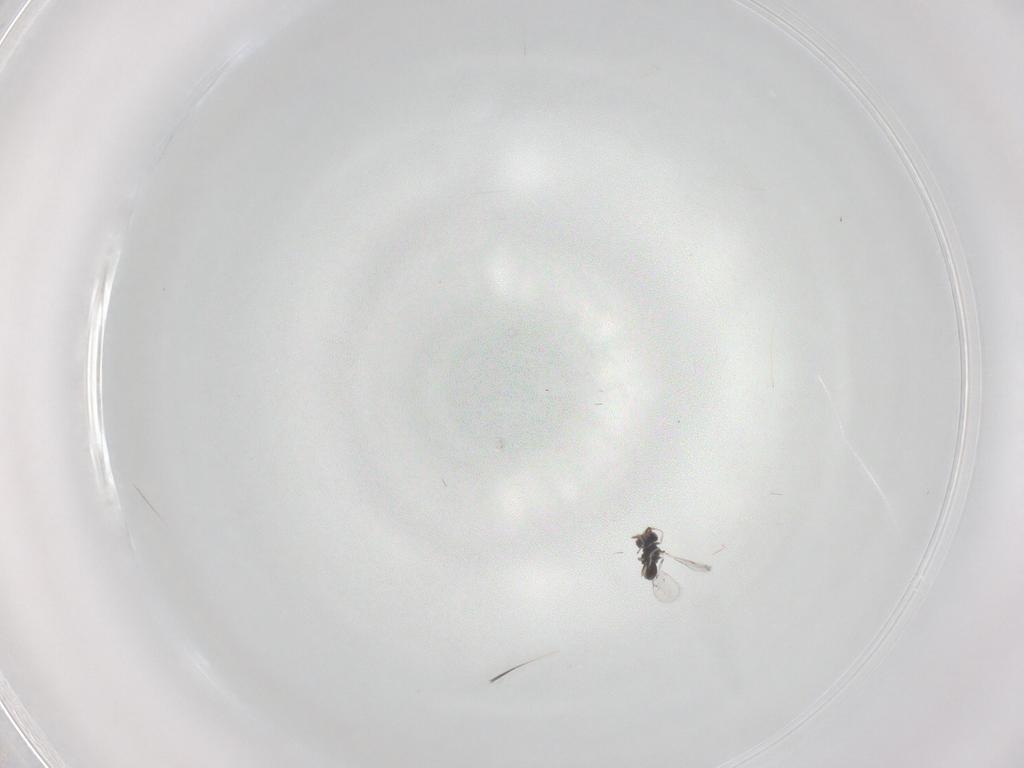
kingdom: Animalia
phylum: Arthropoda
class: Insecta
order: Hymenoptera
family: Eulophidae
